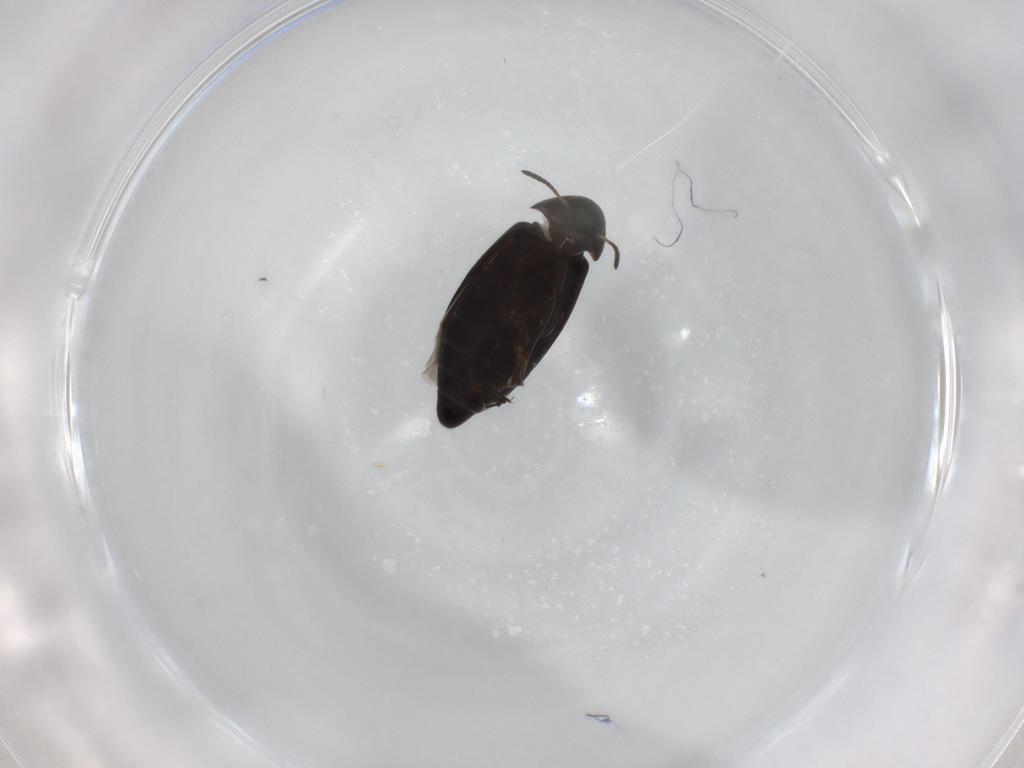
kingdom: Animalia
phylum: Arthropoda
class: Insecta
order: Coleoptera
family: Scraptiidae
